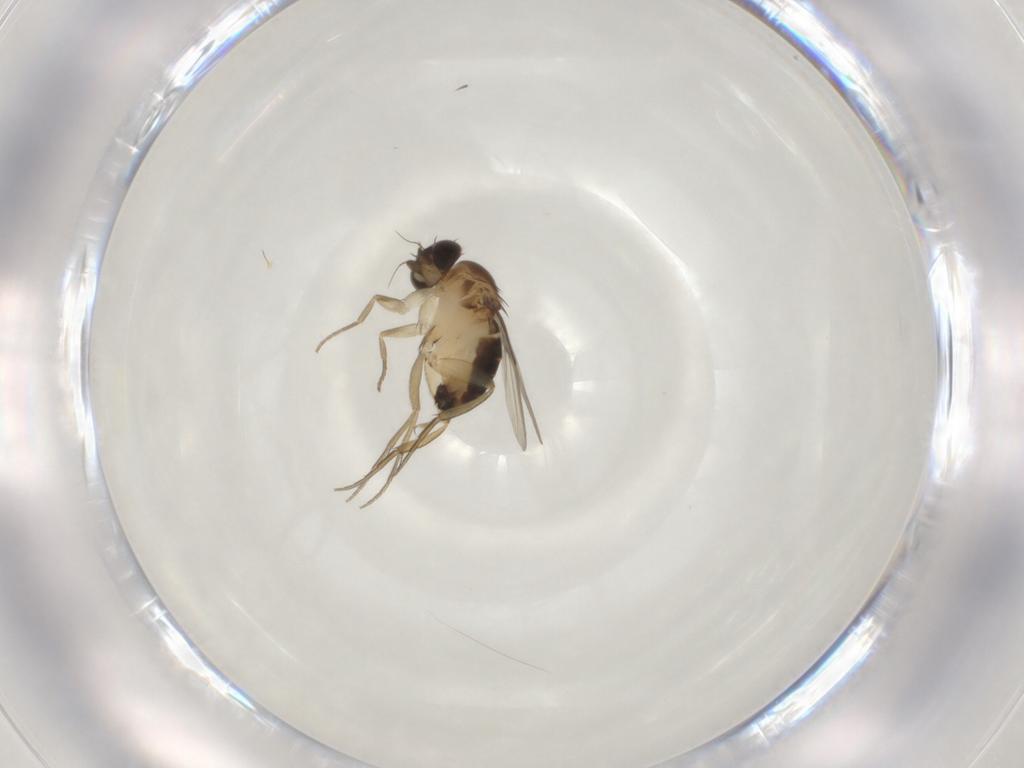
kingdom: Animalia
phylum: Arthropoda
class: Insecta
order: Diptera
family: Phoridae
